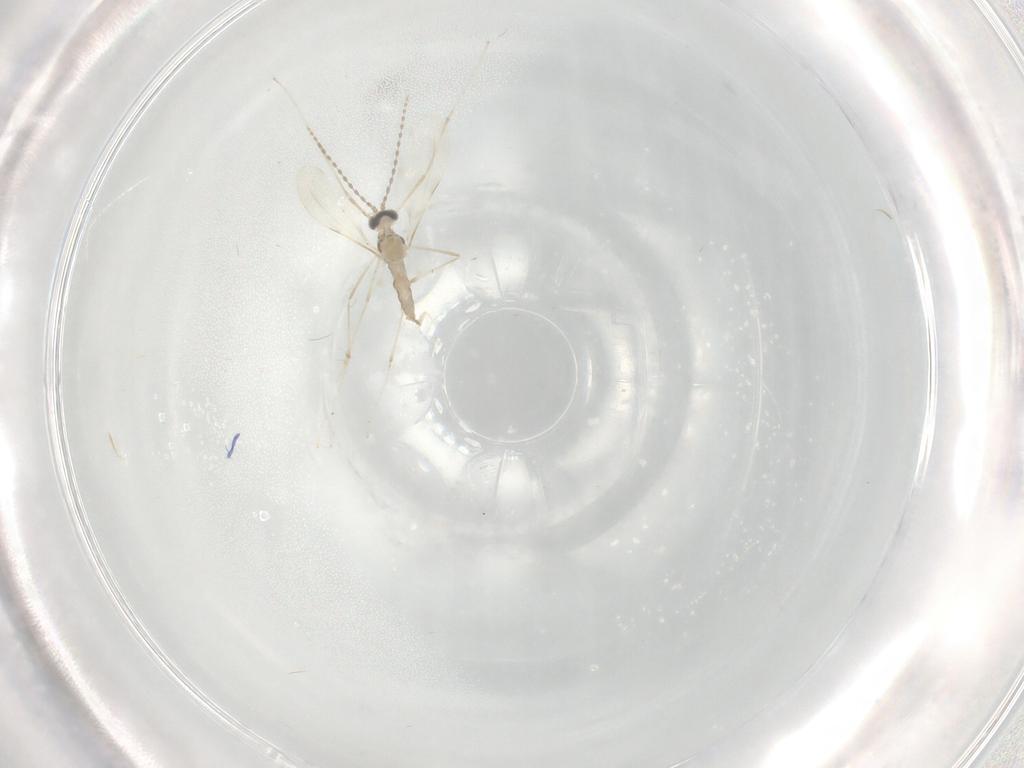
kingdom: Animalia
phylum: Arthropoda
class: Insecta
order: Diptera
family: Cecidomyiidae
